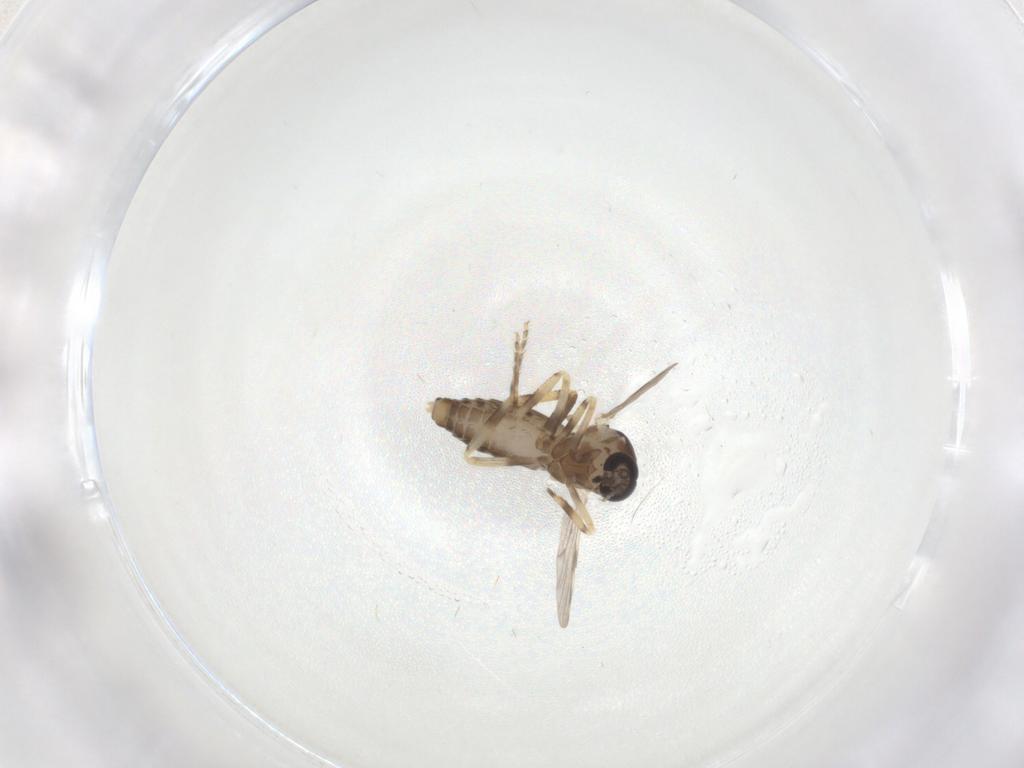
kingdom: Animalia
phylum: Arthropoda
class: Insecta
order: Diptera
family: Ceratopogonidae
